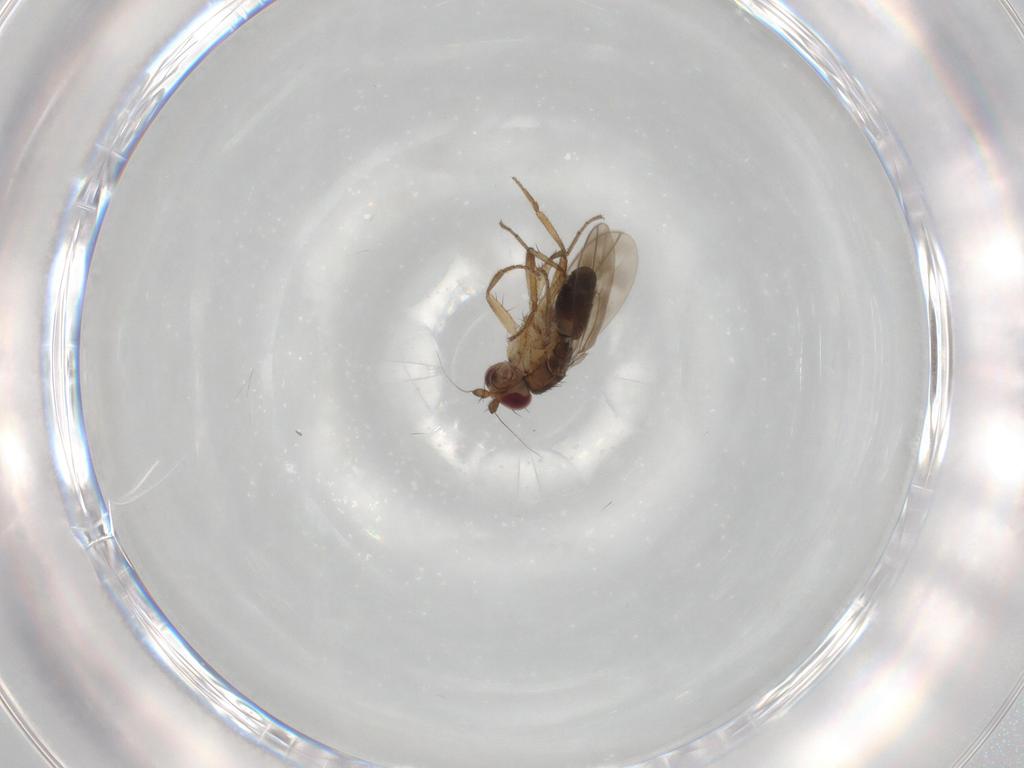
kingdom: Animalia
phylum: Arthropoda
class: Insecta
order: Diptera
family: Sphaeroceridae
